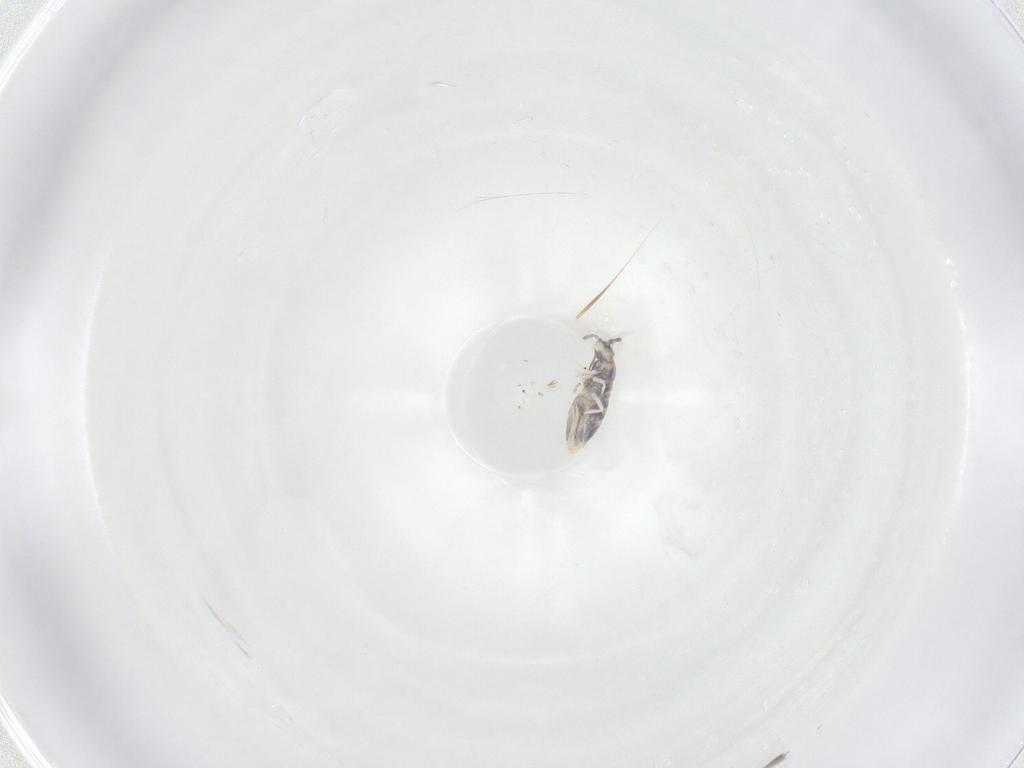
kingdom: Animalia
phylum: Arthropoda
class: Collembola
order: Entomobryomorpha
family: Entomobryidae
